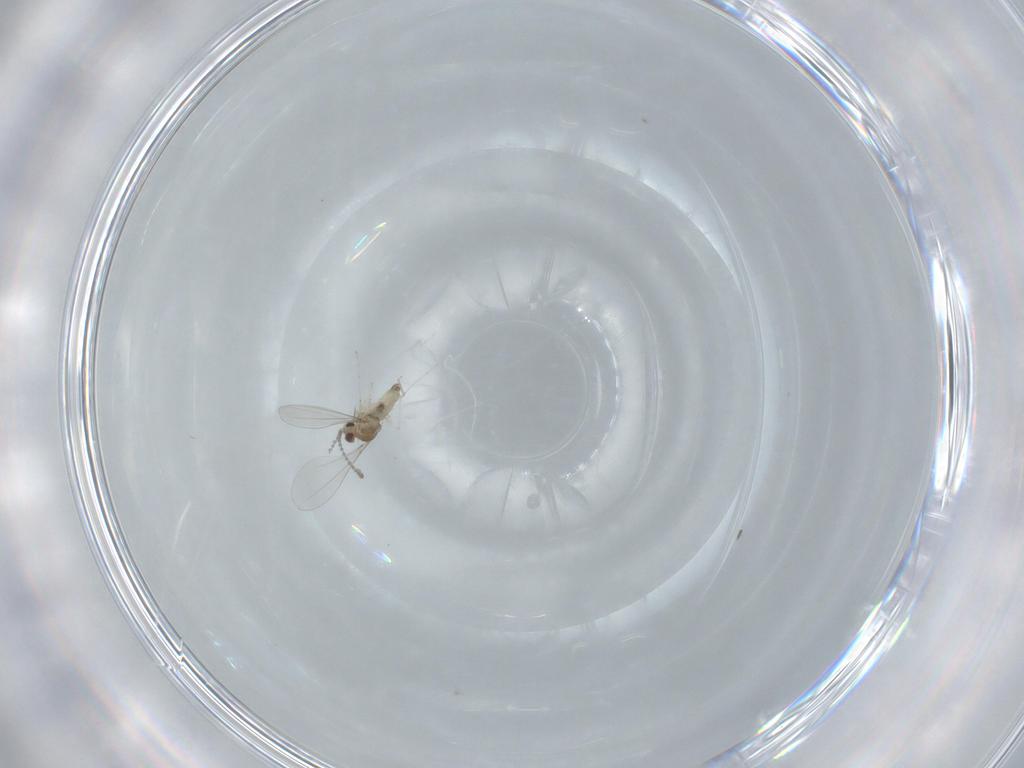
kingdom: Animalia
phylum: Arthropoda
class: Insecta
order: Diptera
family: Cecidomyiidae
